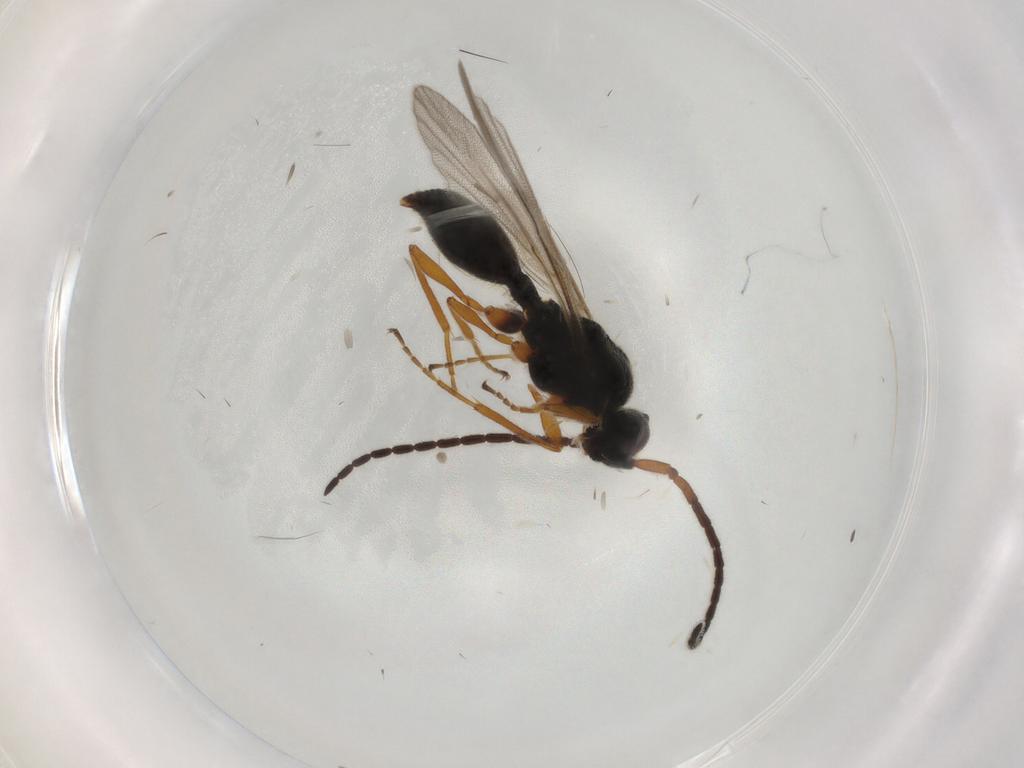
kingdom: Animalia
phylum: Arthropoda
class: Insecta
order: Hymenoptera
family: Ichneumonidae
